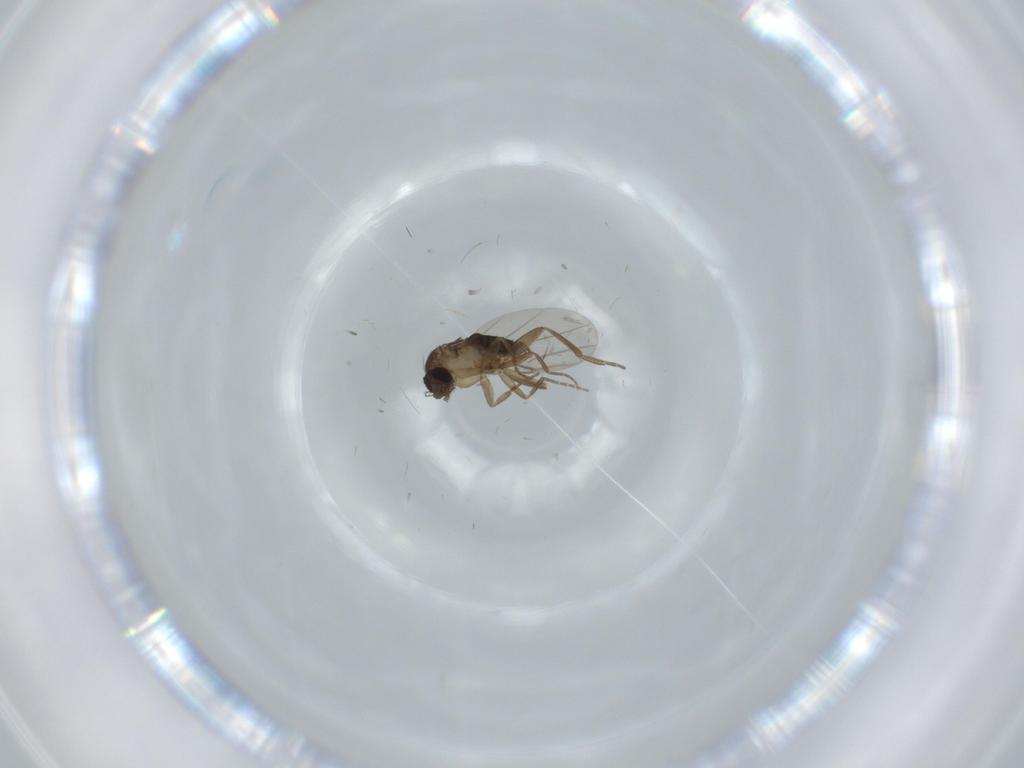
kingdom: Animalia
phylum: Arthropoda
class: Insecta
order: Diptera
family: Phoridae
